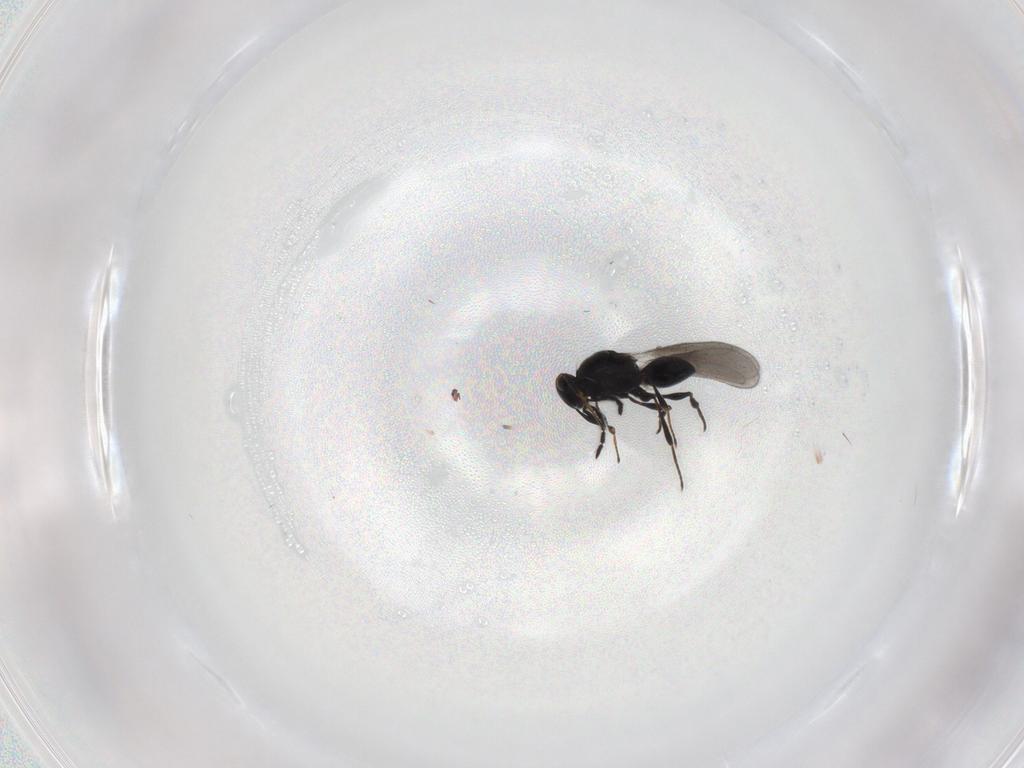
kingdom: Animalia
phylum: Arthropoda
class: Insecta
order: Hymenoptera
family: Platygastridae
